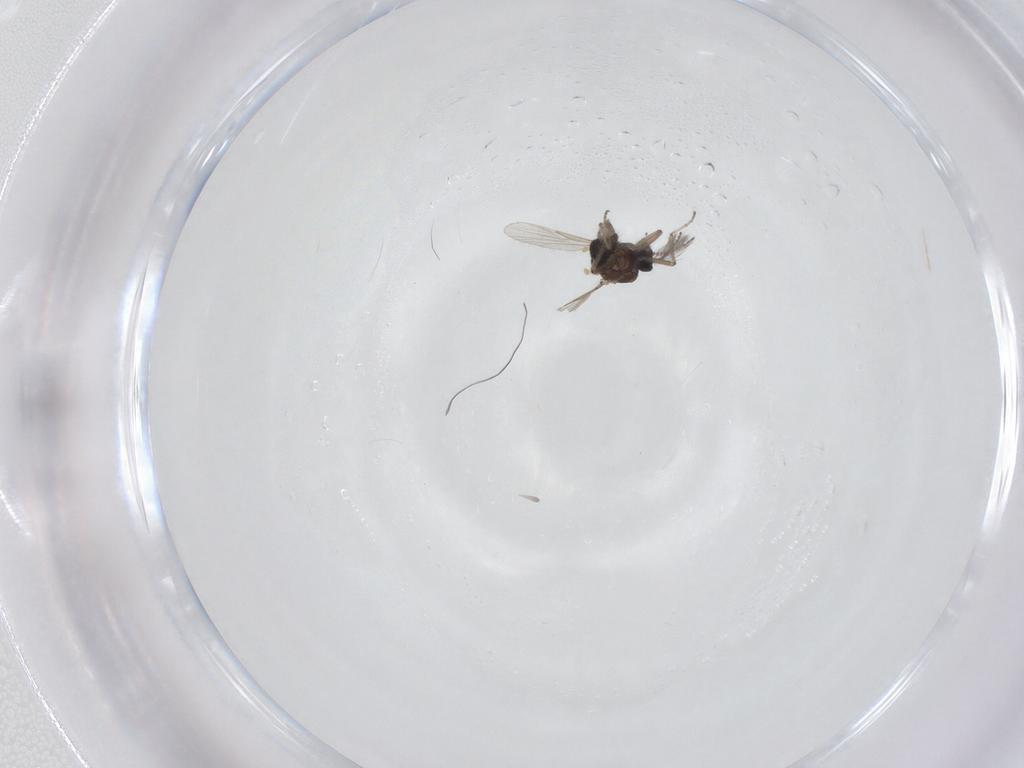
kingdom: Animalia
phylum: Arthropoda
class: Insecta
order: Diptera
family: Ceratopogonidae
